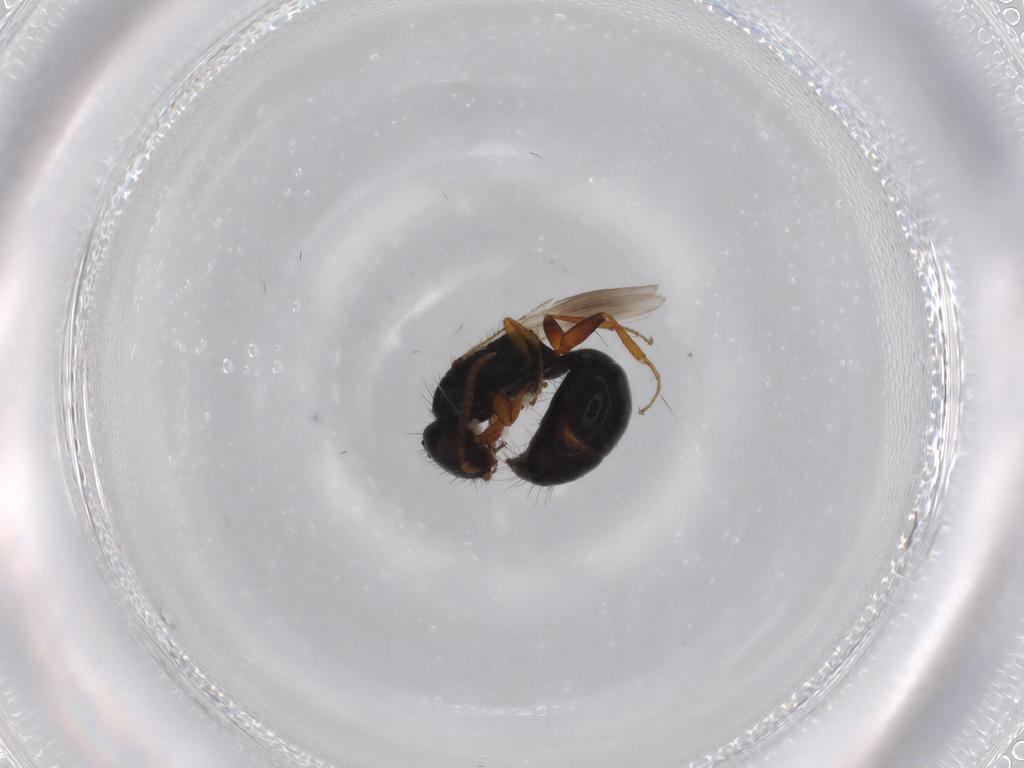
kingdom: Animalia
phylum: Arthropoda
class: Insecta
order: Hymenoptera
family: Bethylidae
